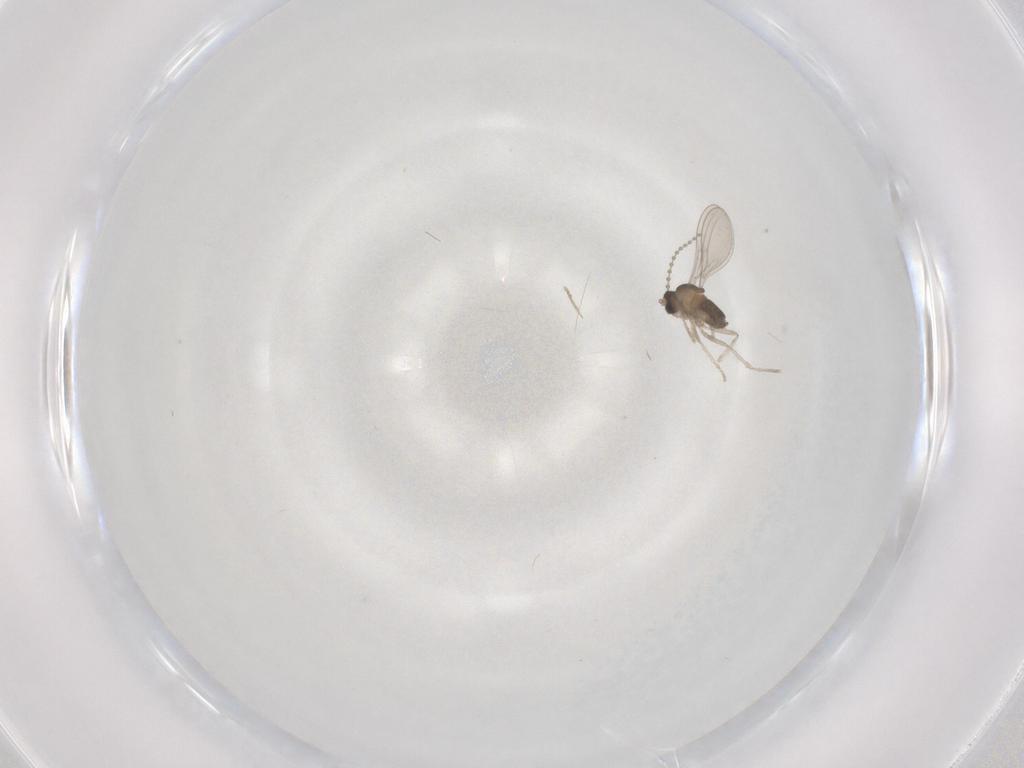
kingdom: Animalia
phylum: Arthropoda
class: Insecta
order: Diptera
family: Cecidomyiidae
